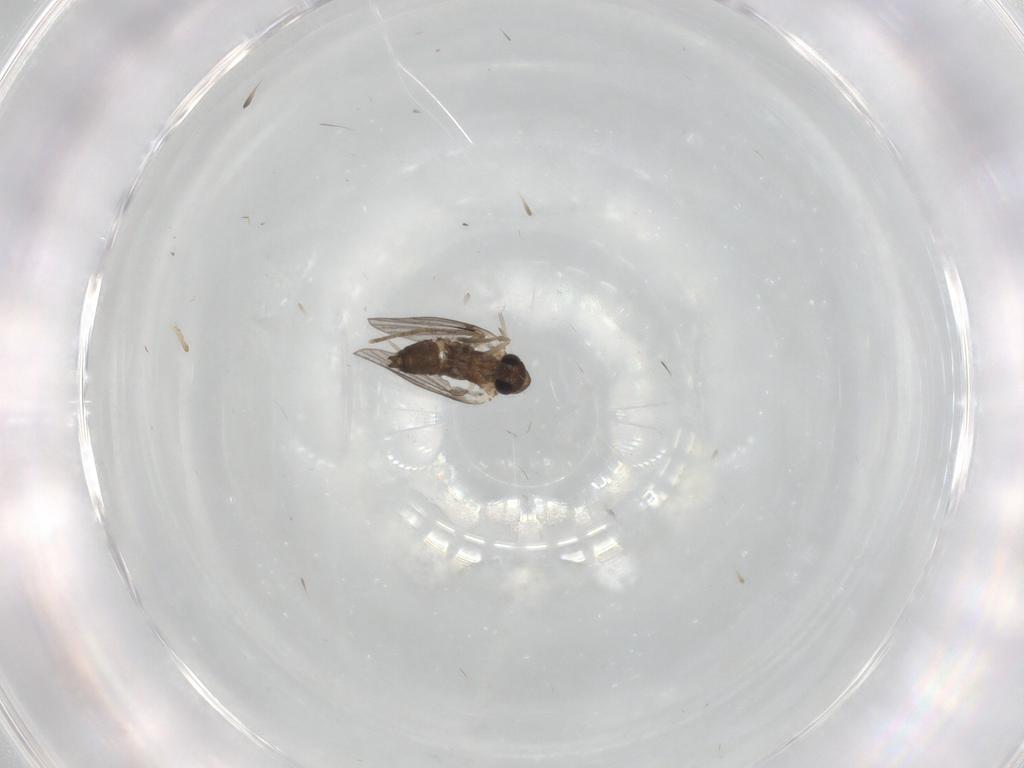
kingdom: Animalia
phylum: Arthropoda
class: Insecta
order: Diptera
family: Cecidomyiidae
